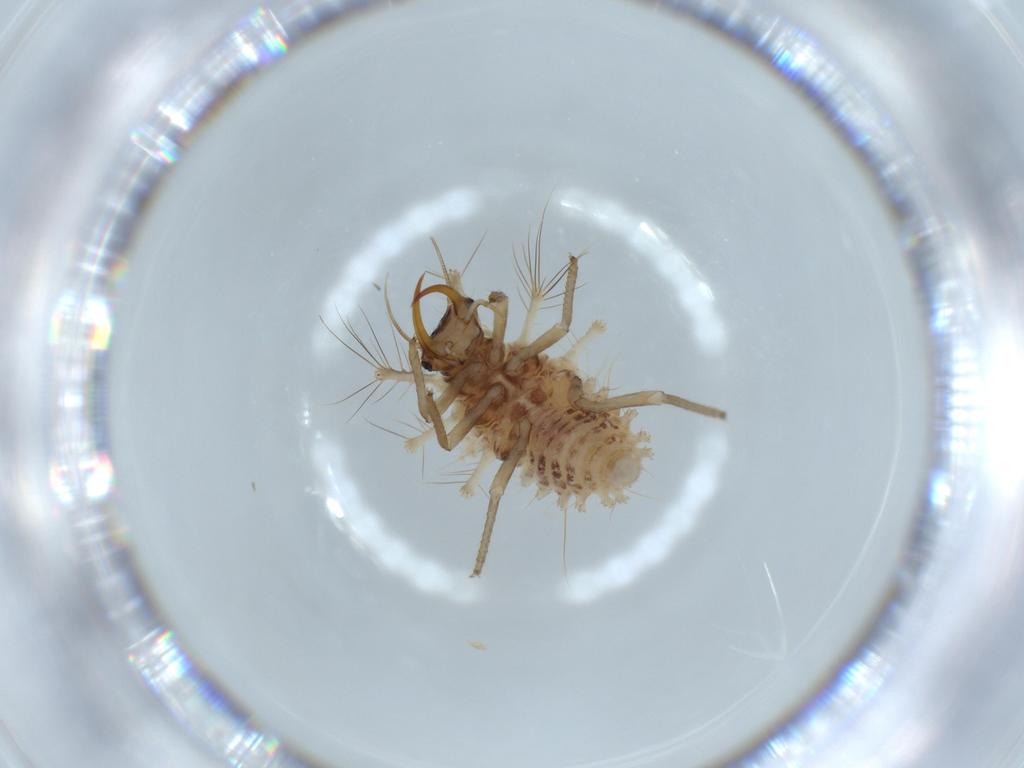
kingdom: Animalia
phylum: Arthropoda
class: Insecta
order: Neuroptera
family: Chrysopidae
